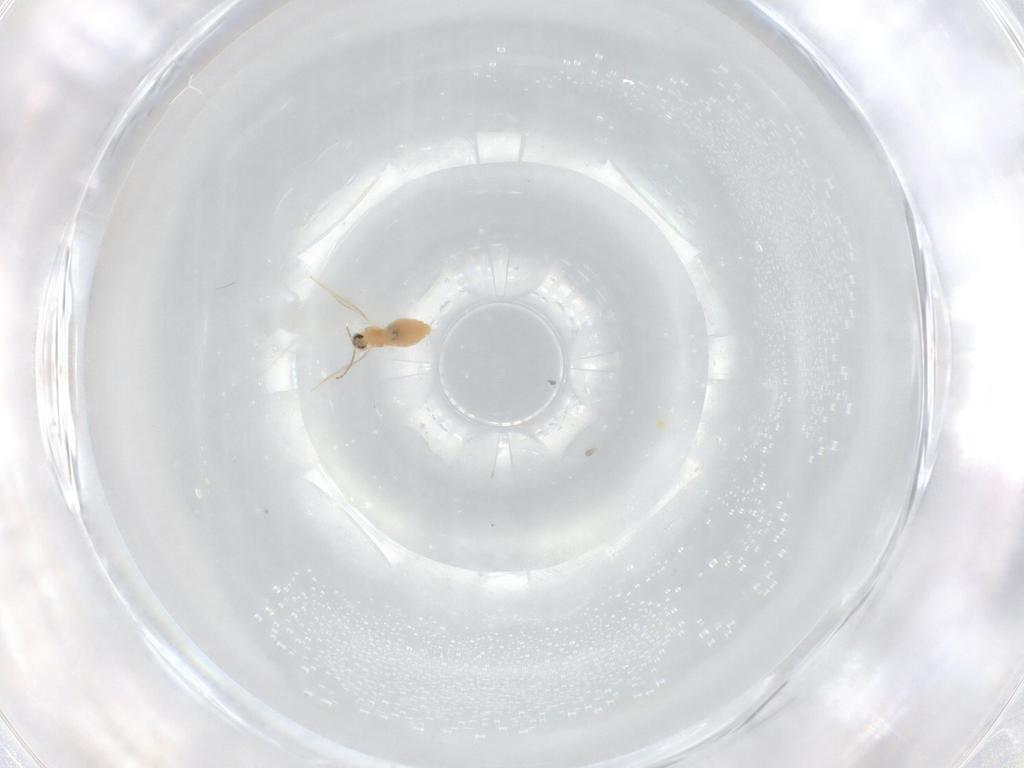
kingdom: Animalia
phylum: Arthropoda
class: Insecta
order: Diptera
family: Cecidomyiidae
